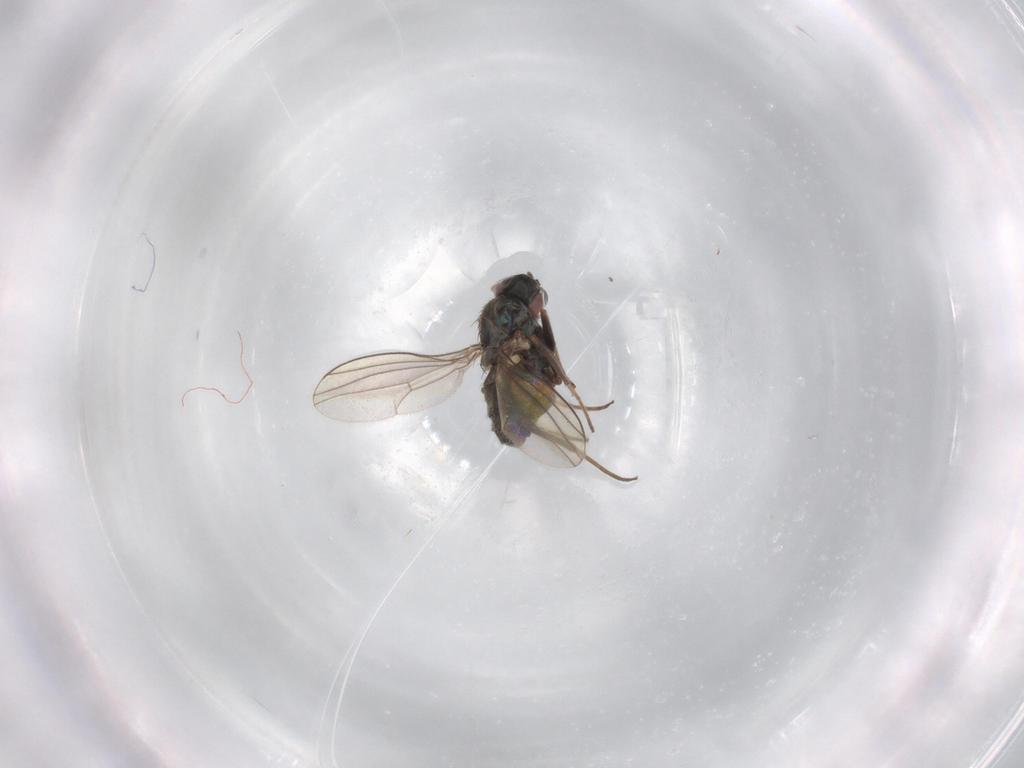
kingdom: Animalia
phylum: Arthropoda
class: Insecta
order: Diptera
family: Dolichopodidae
